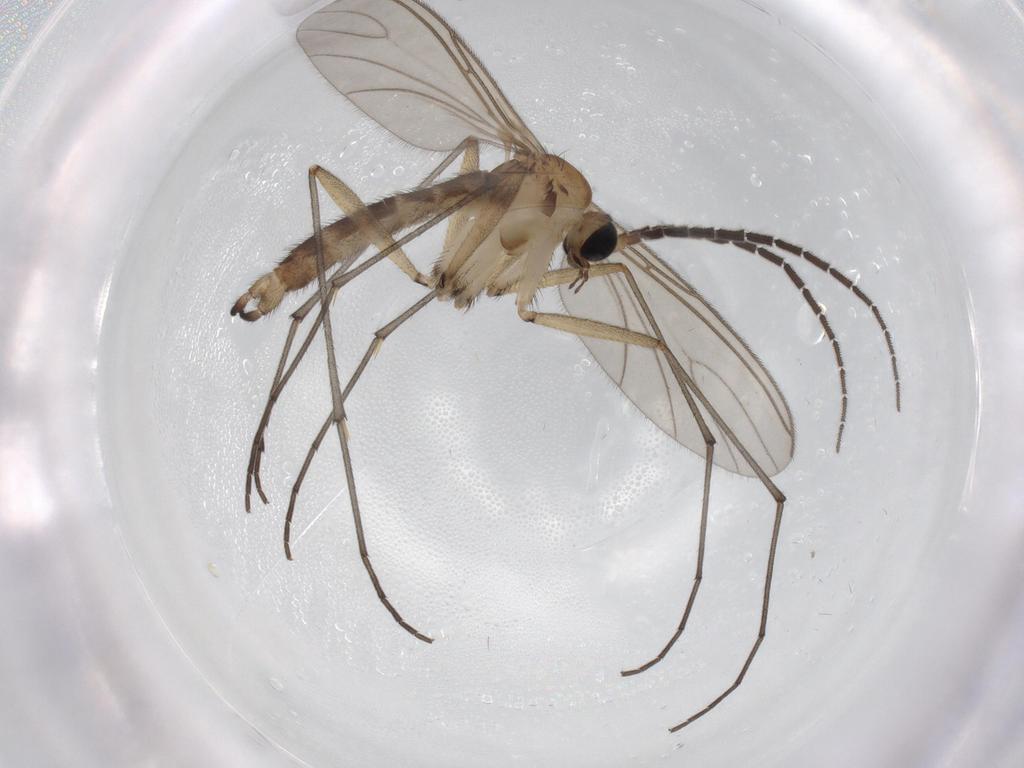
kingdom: Animalia
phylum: Arthropoda
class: Insecta
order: Diptera
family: Sciaridae
